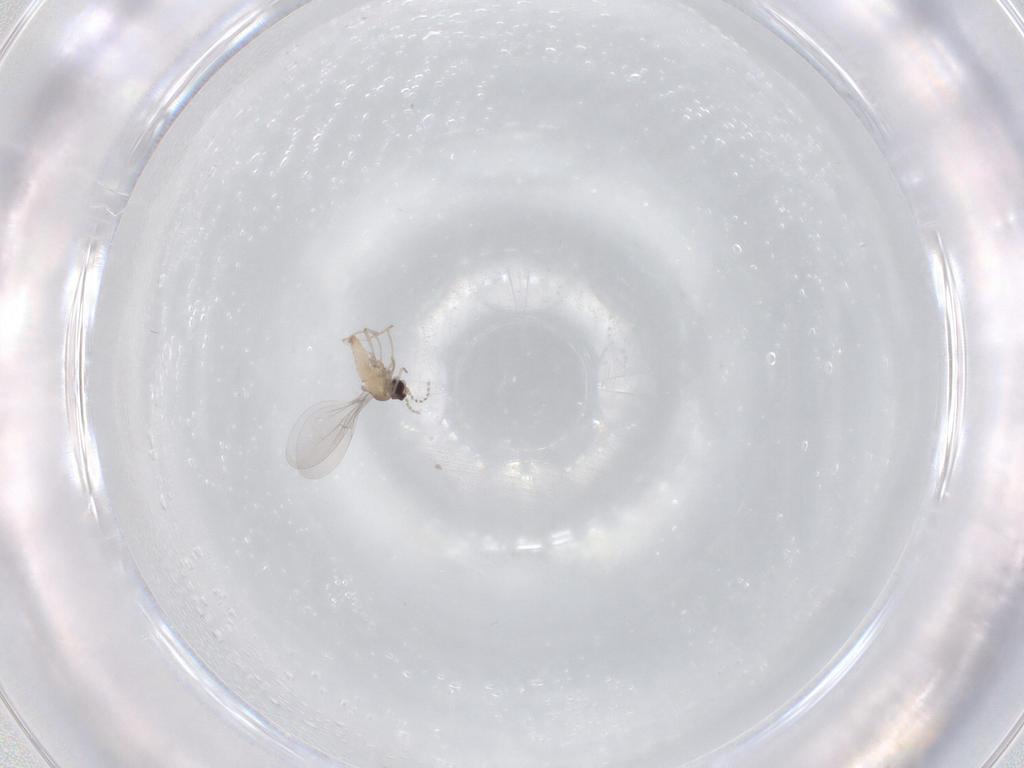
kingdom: Animalia
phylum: Arthropoda
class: Insecta
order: Diptera
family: Cecidomyiidae
